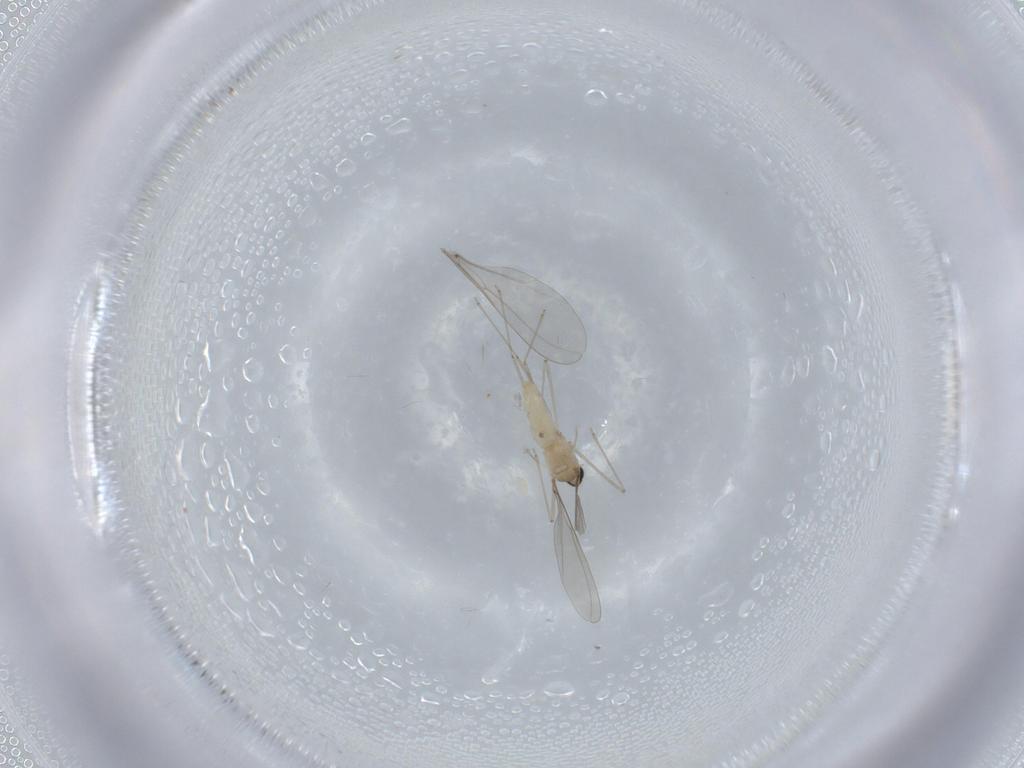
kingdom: Animalia
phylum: Arthropoda
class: Insecta
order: Diptera
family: Cecidomyiidae
